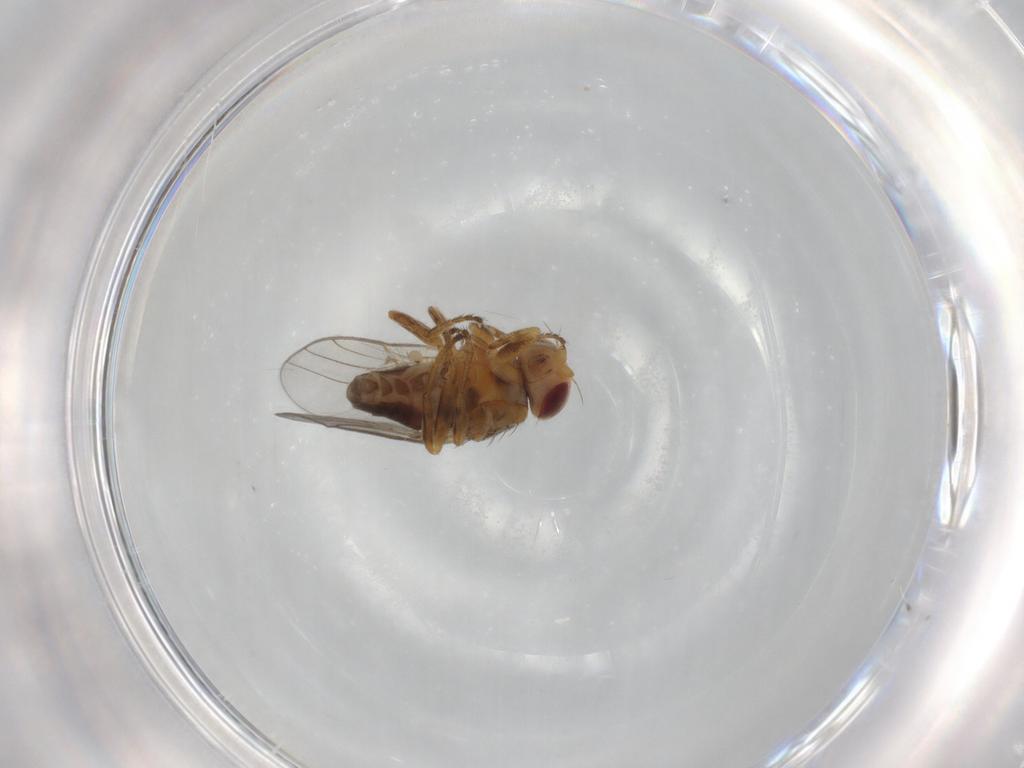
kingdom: Animalia
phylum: Arthropoda
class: Insecta
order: Diptera
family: Chloropidae
